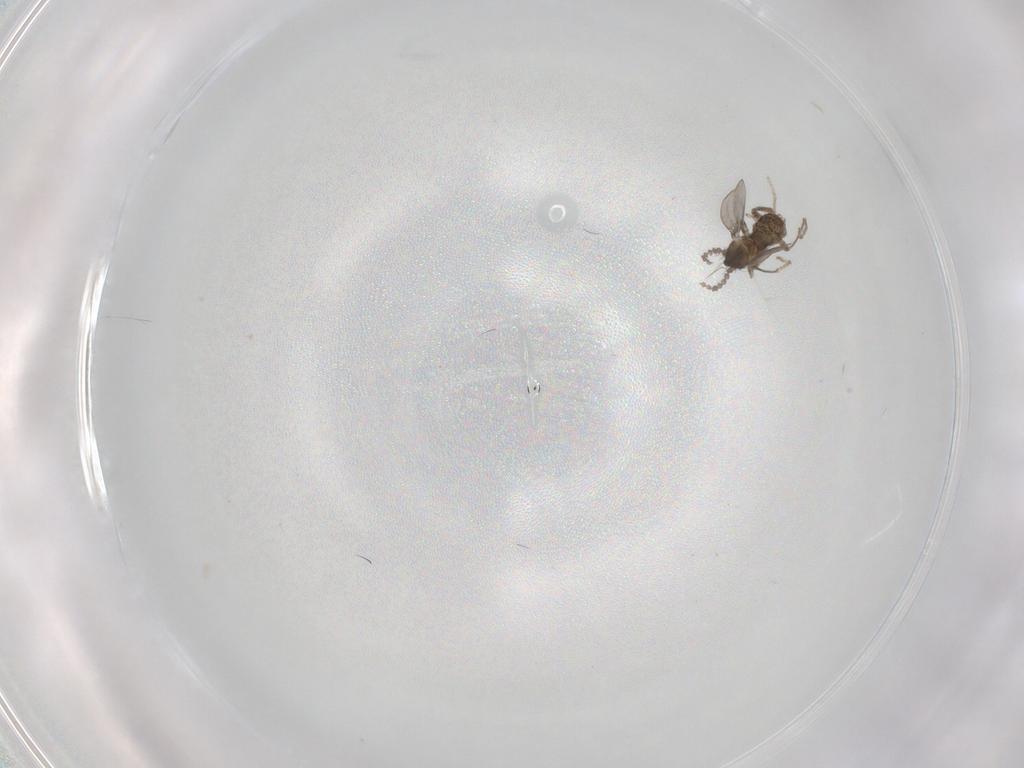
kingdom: Animalia
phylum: Arthropoda
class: Insecta
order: Diptera
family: Cecidomyiidae
